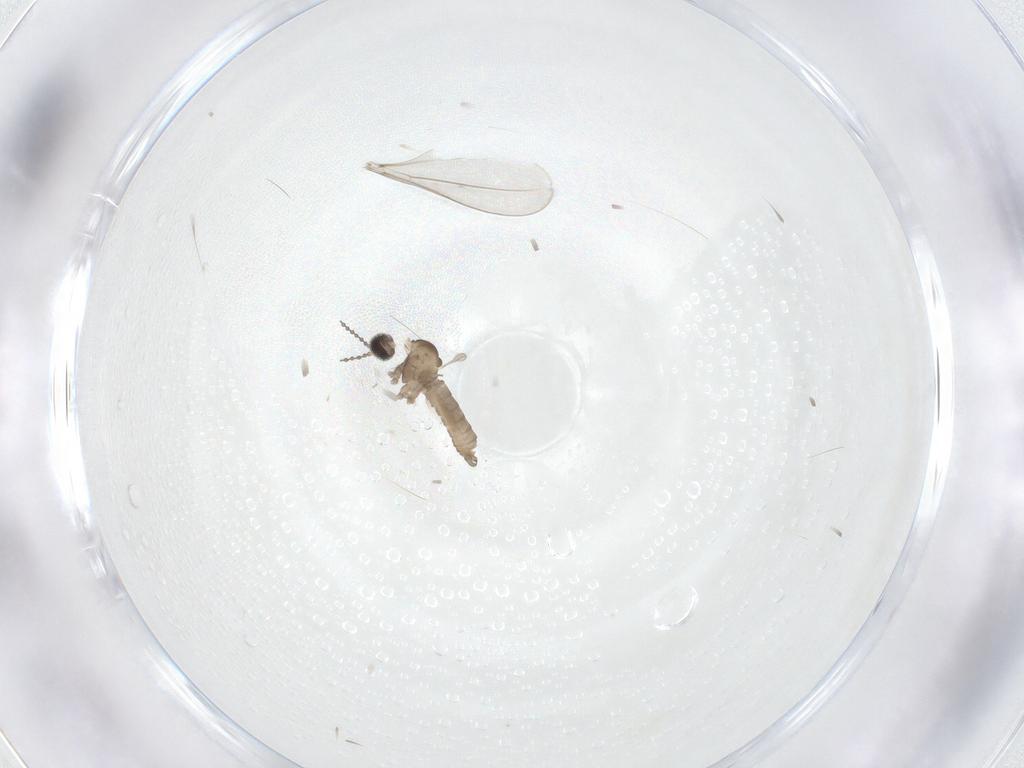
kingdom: Animalia
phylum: Arthropoda
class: Insecta
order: Diptera
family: Cecidomyiidae
